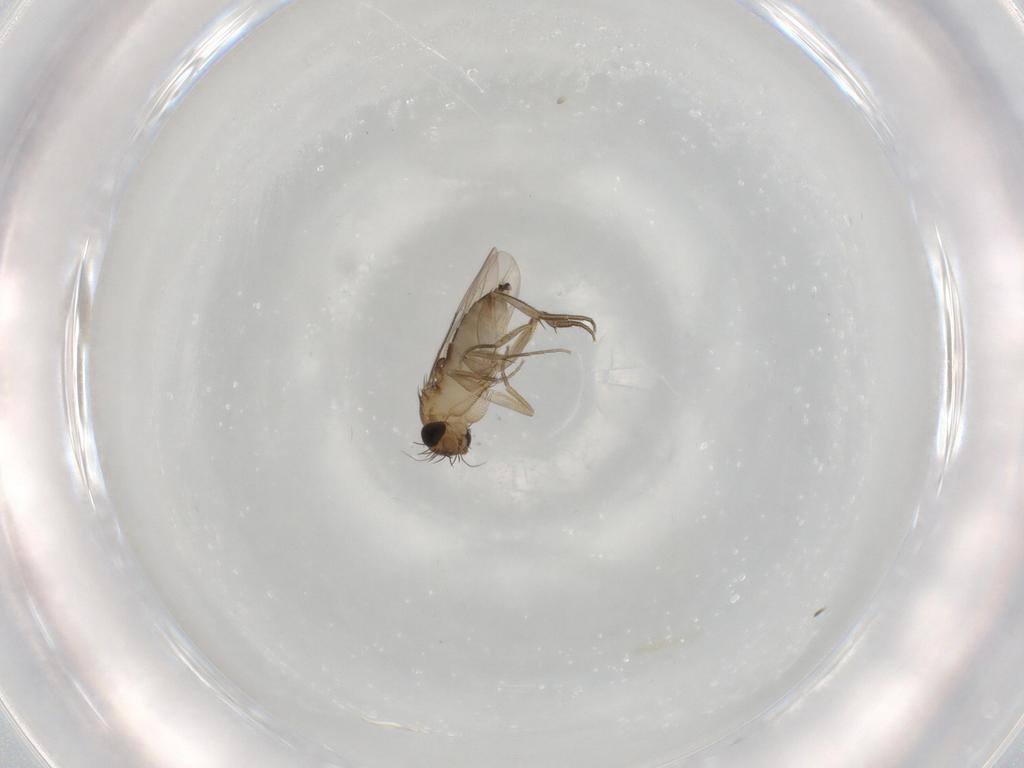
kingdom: Animalia
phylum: Arthropoda
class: Insecta
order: Diptera
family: Phoridae
